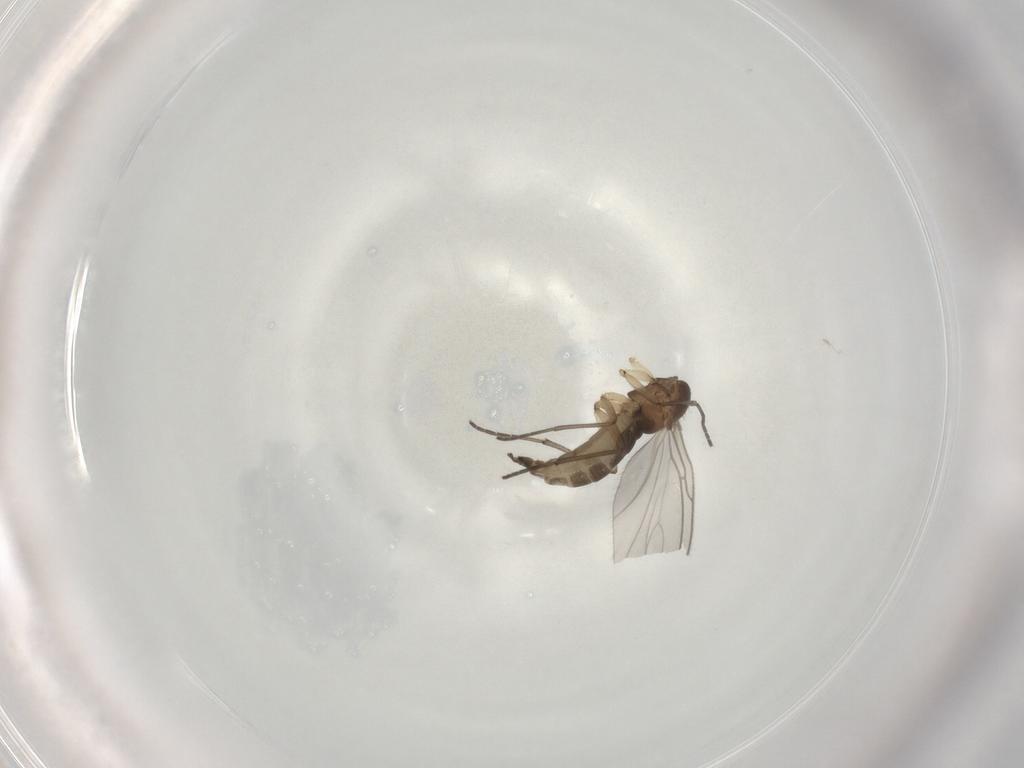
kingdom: Animalia
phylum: Arthropoda
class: Insecta
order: Diptera
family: Sciaridae
